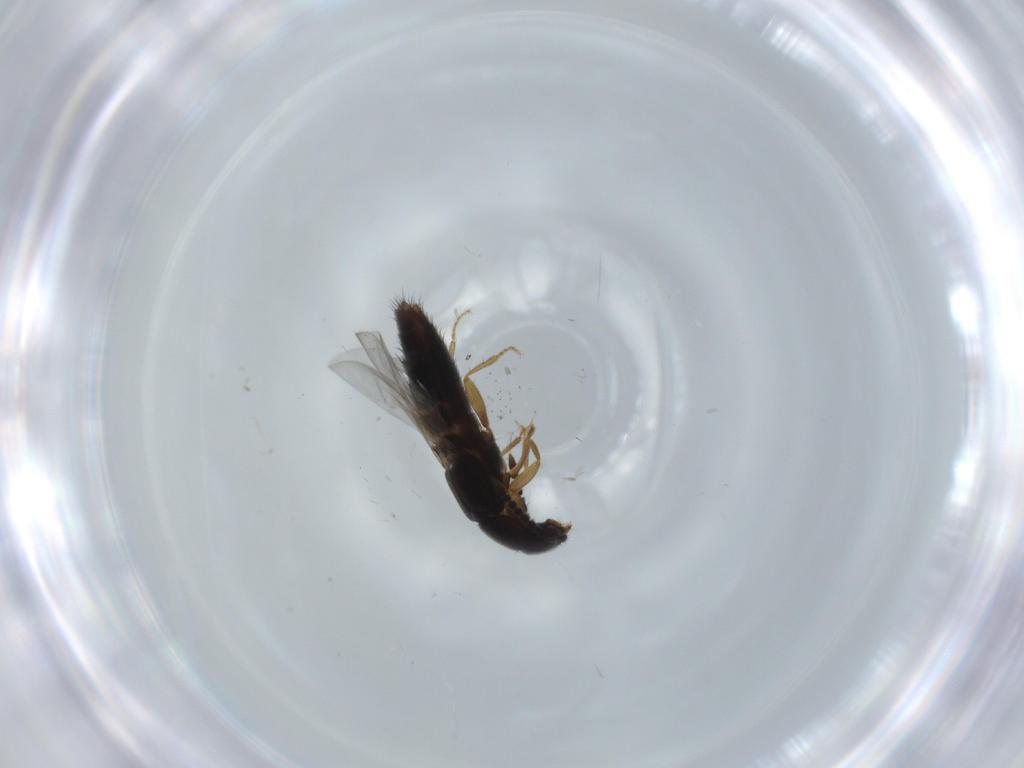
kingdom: Animalia
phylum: Arthropoda
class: Insecta
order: Coleoptera
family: Staphylinidae
